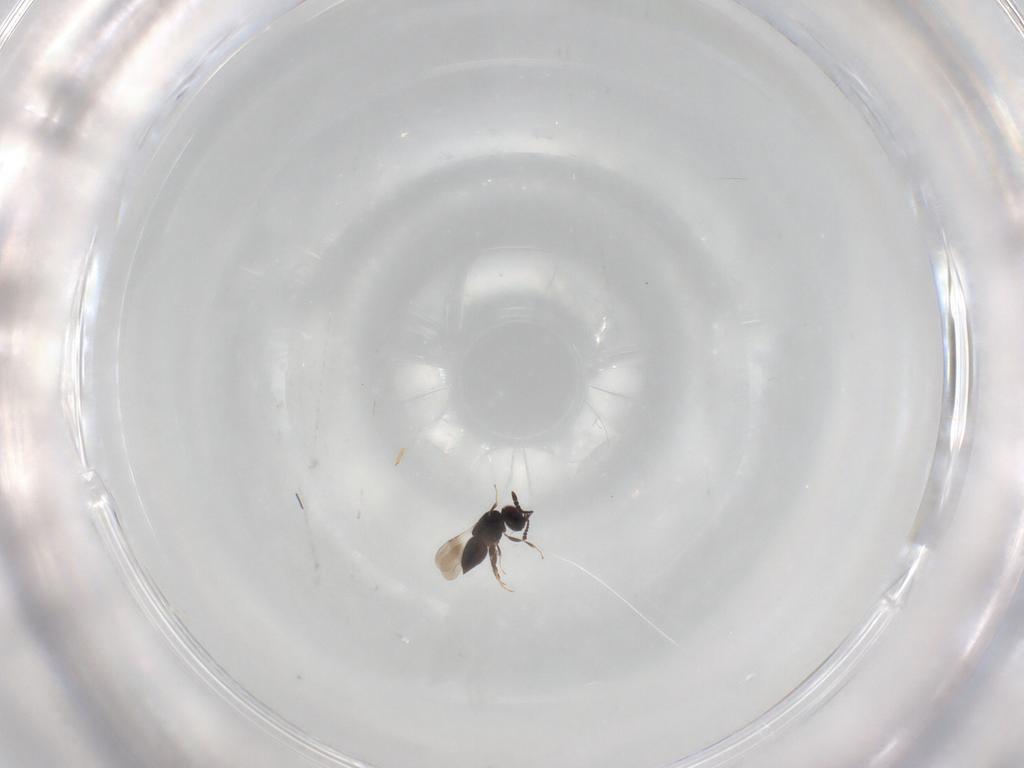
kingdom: Animalia
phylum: Arthropoda
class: Insecta
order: Hymenoptera
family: Scelionidae
